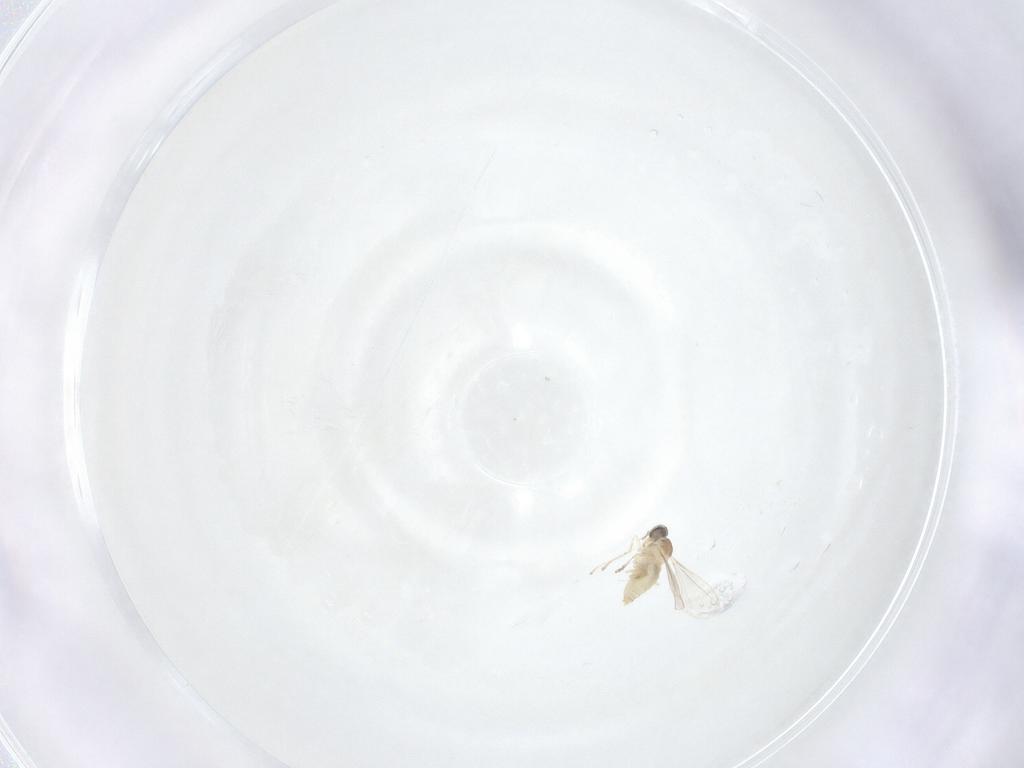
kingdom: Animalia
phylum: Arthropoda
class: Insecta
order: Diptera
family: Cecidomyiidae
